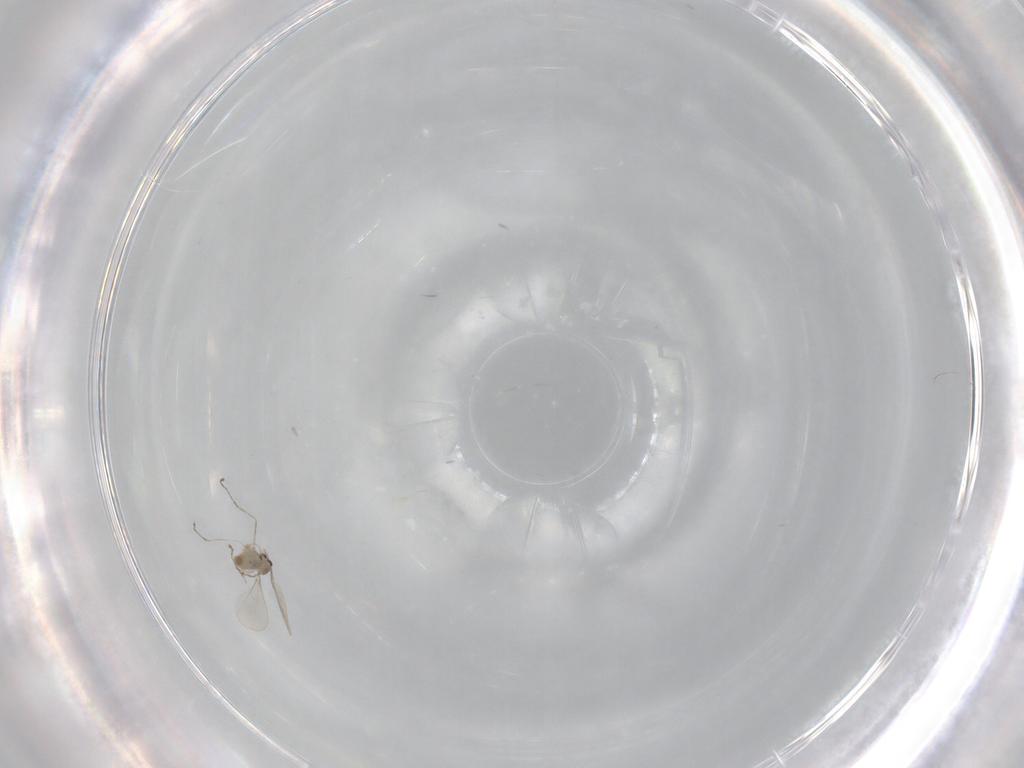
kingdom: Animalia
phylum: Arthropoda
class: Insecta
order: Diptera
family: Cecidomyiidae
